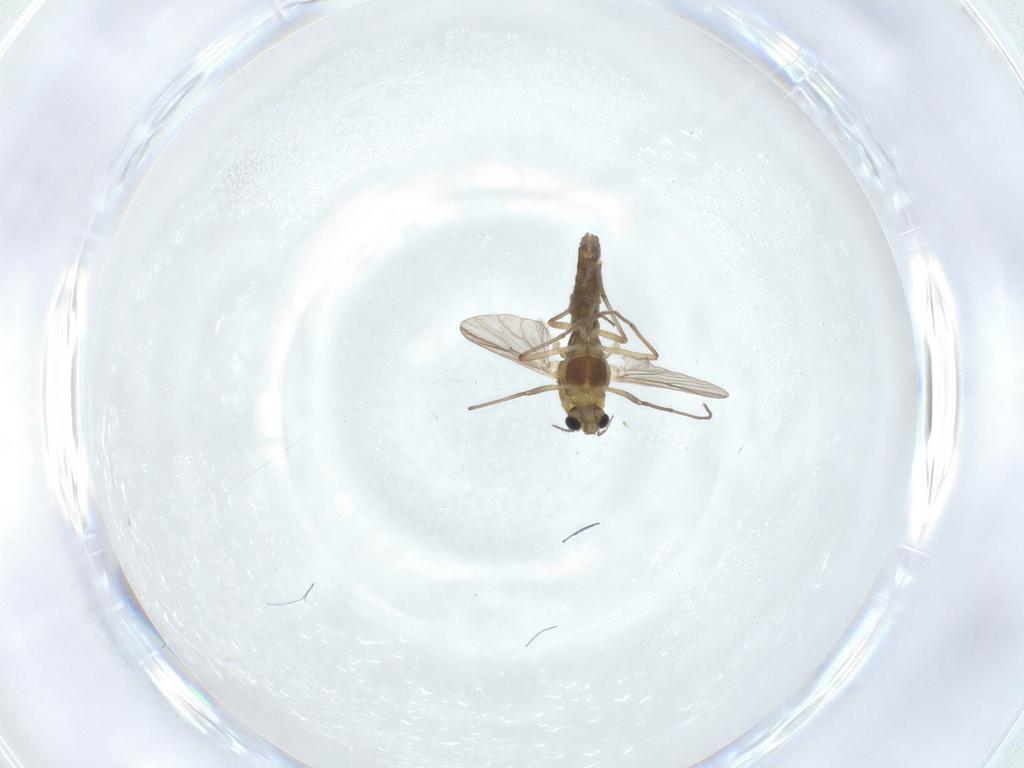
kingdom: Animalia
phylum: Arthropoda
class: Insecta
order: Diptera
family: Chironomidae
